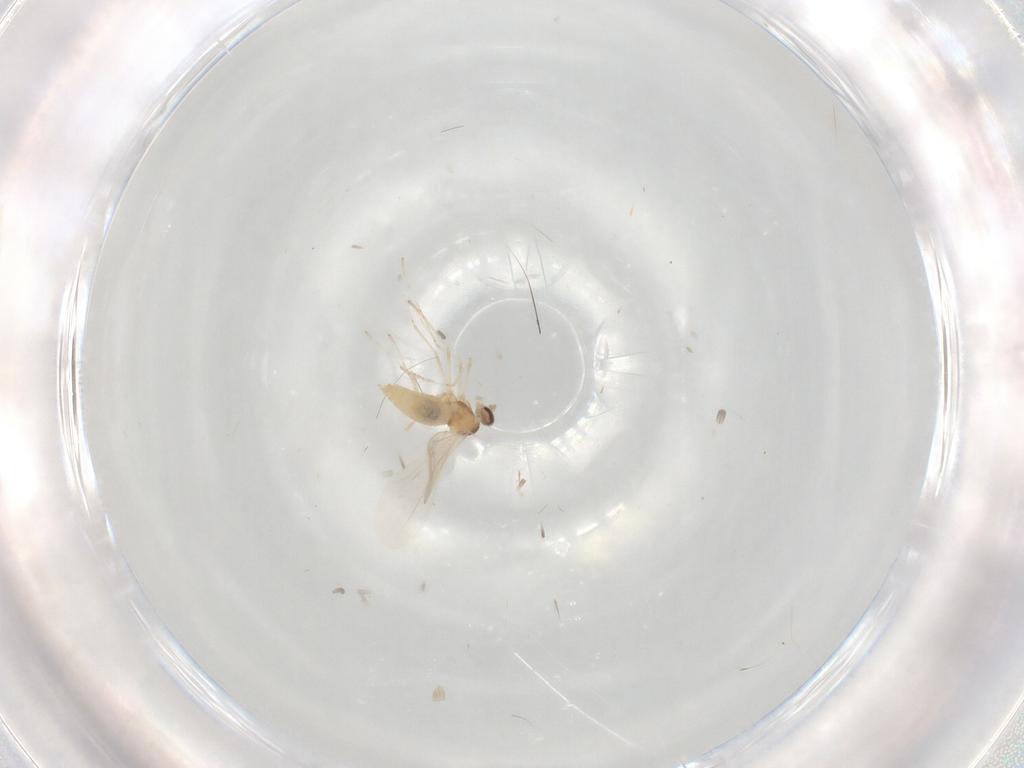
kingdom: Animalia
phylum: Arthropoda
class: Insecta
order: Diptera
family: Cecidomyiidae
